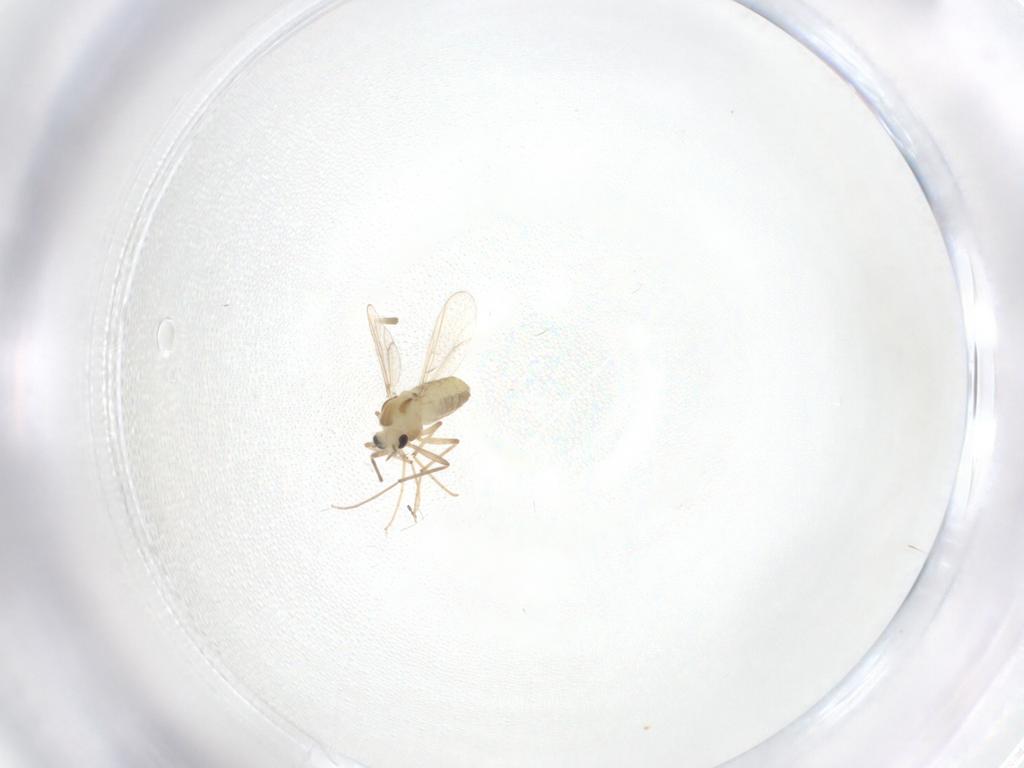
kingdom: Animalia
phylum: Arthropoda
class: Insecta
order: Diptera
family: Chironomidae
